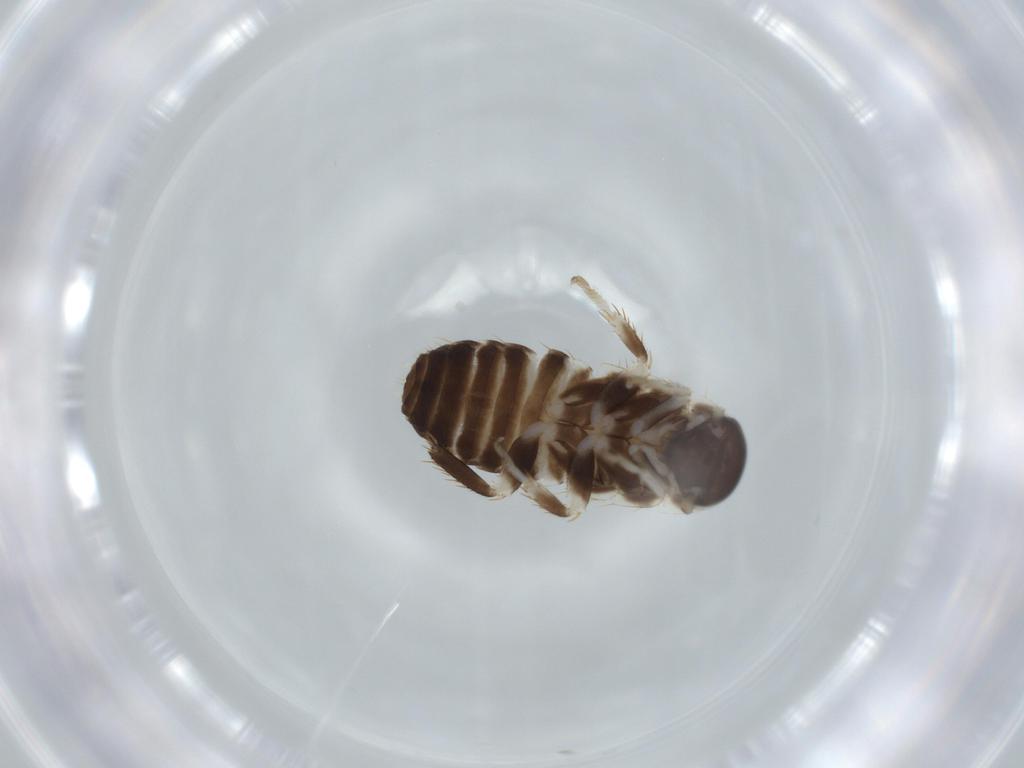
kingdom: Animalia
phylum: Arthropoda
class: Insecta
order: Blattodea
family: Ectobiidae
